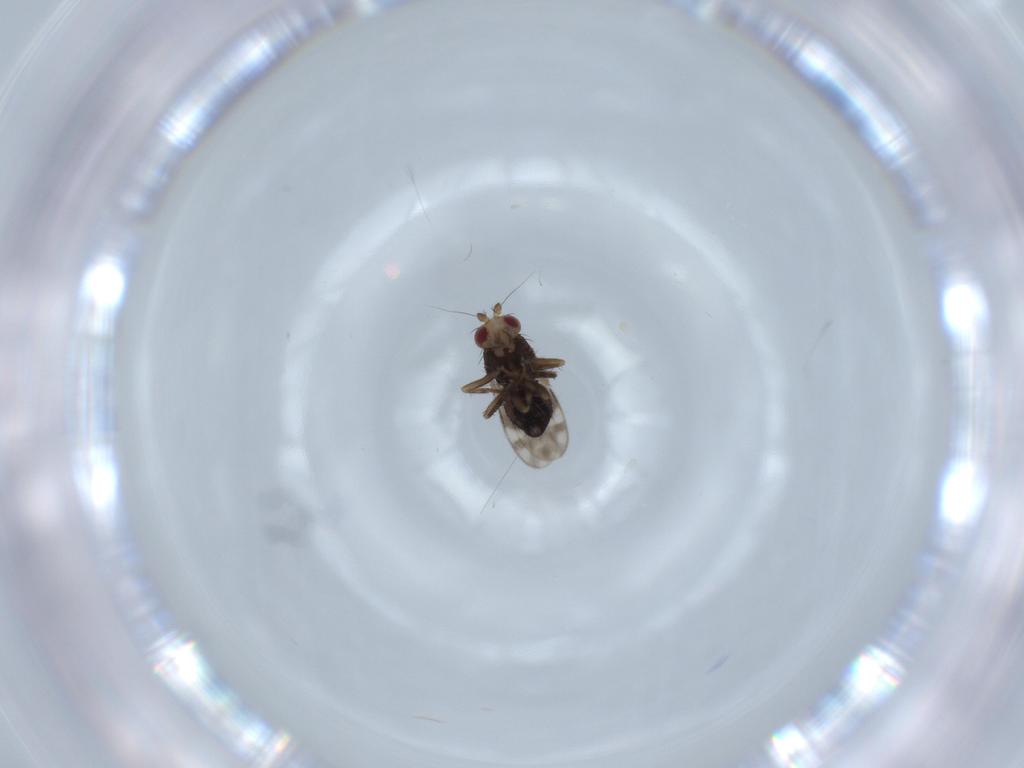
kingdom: Animalia
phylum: Arthropoda
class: Insecta
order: Diptera
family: Sphaeroceridae
